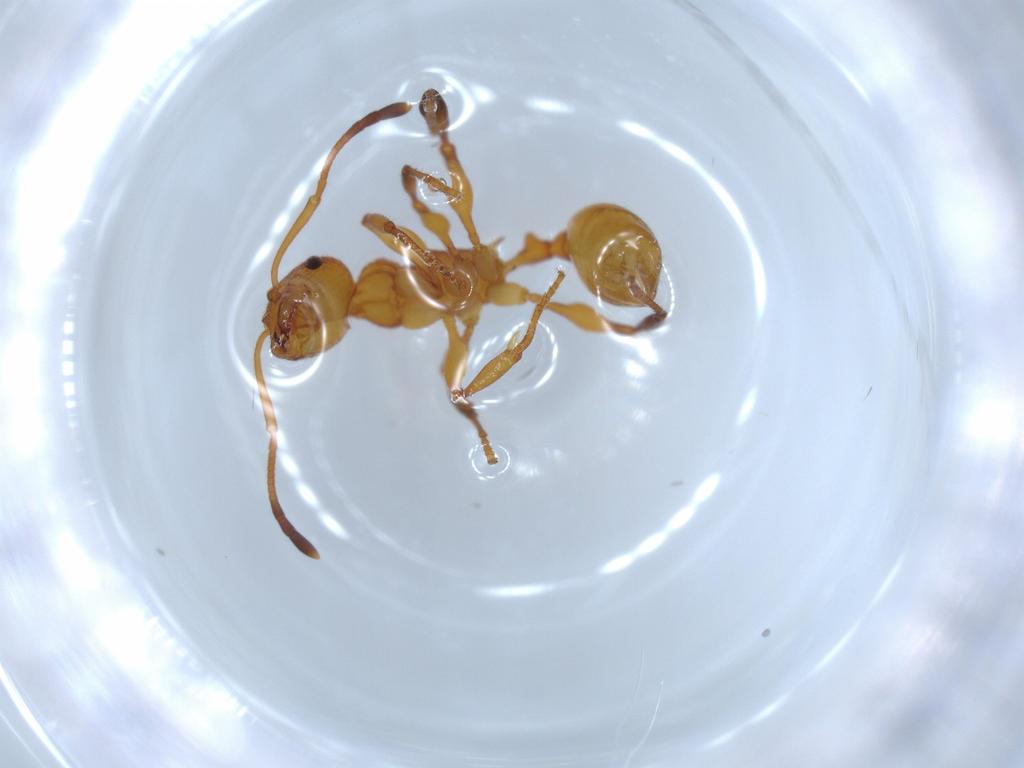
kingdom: Animalia
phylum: Arthropoda
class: Insecta
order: Hymenoptera
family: Formicidae
